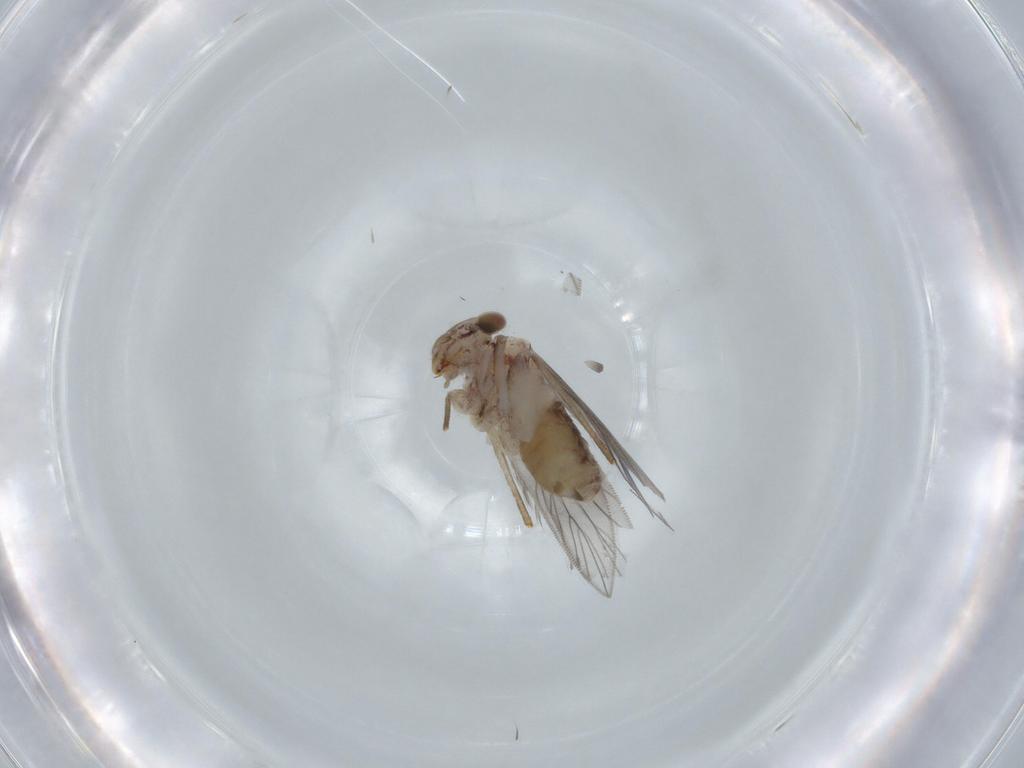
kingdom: Animalia
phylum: Arthropoda
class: Insecta
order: Psocodea
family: Lepidopsocidae
